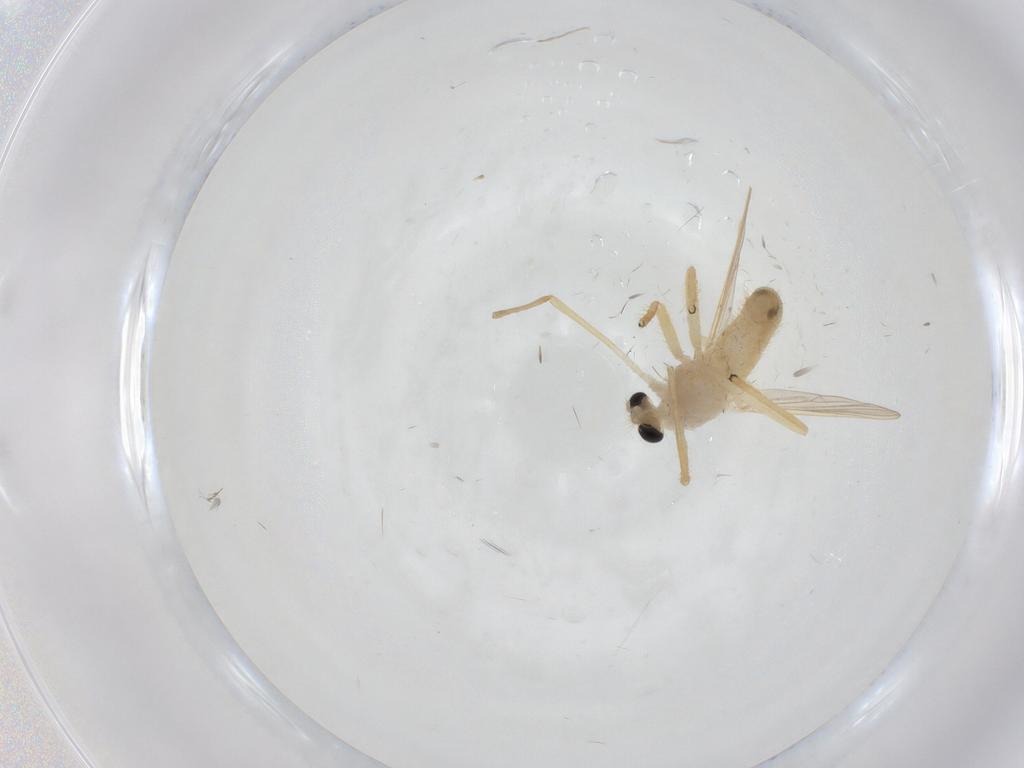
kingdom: Animalia
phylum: Arthropoda
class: Insecta
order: Diptera
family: Chironomidae
